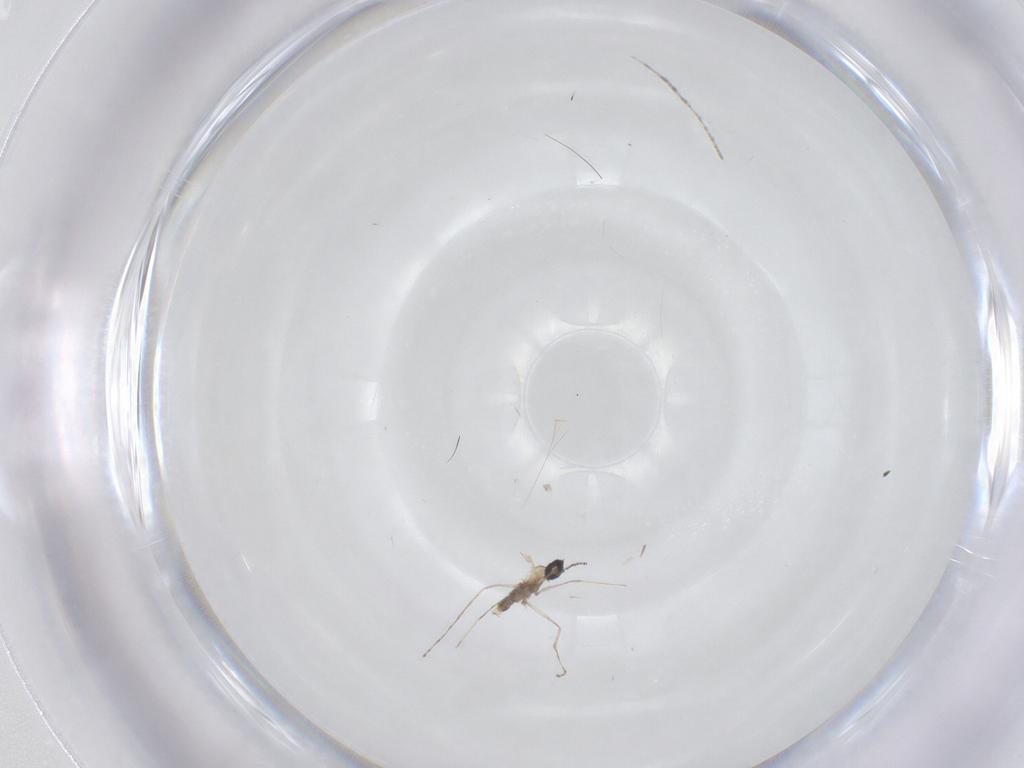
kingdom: Animalia
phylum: Arthropoda
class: Insecta
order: Diptera
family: Cecidomyiidae
